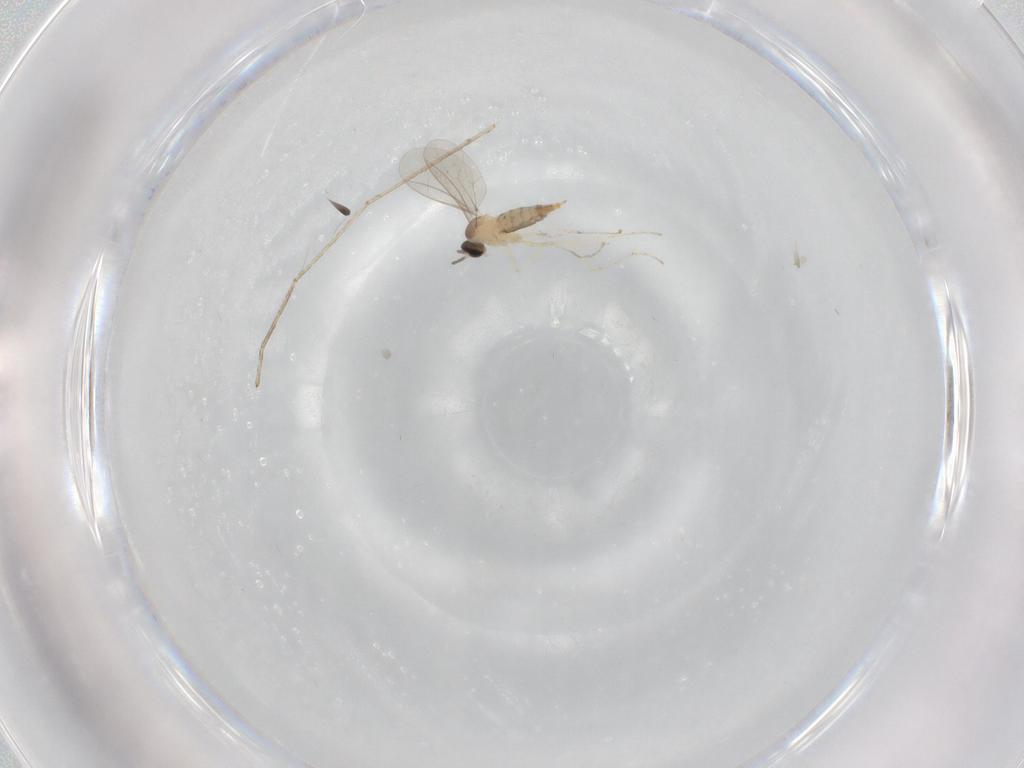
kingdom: Animalia
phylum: Arthropoda
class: Insecta
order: Diptera
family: Cecidomyiidae
